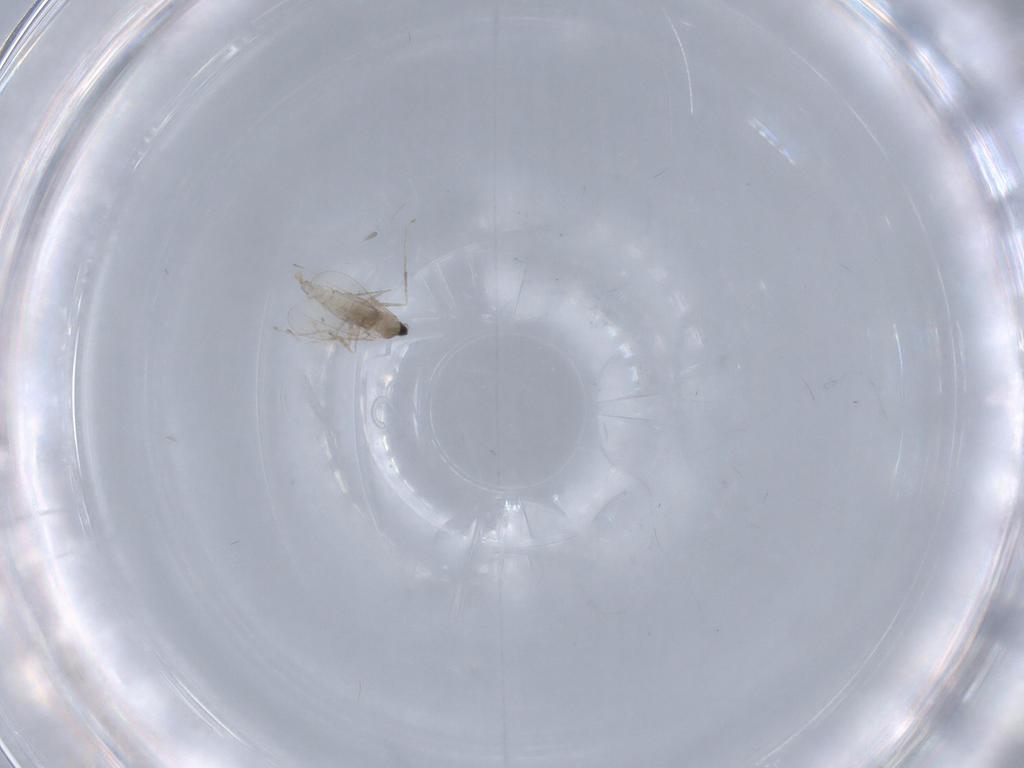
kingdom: Animalia
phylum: Arthropoda
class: Insecta
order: Diptera
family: Cecidomyiidae
